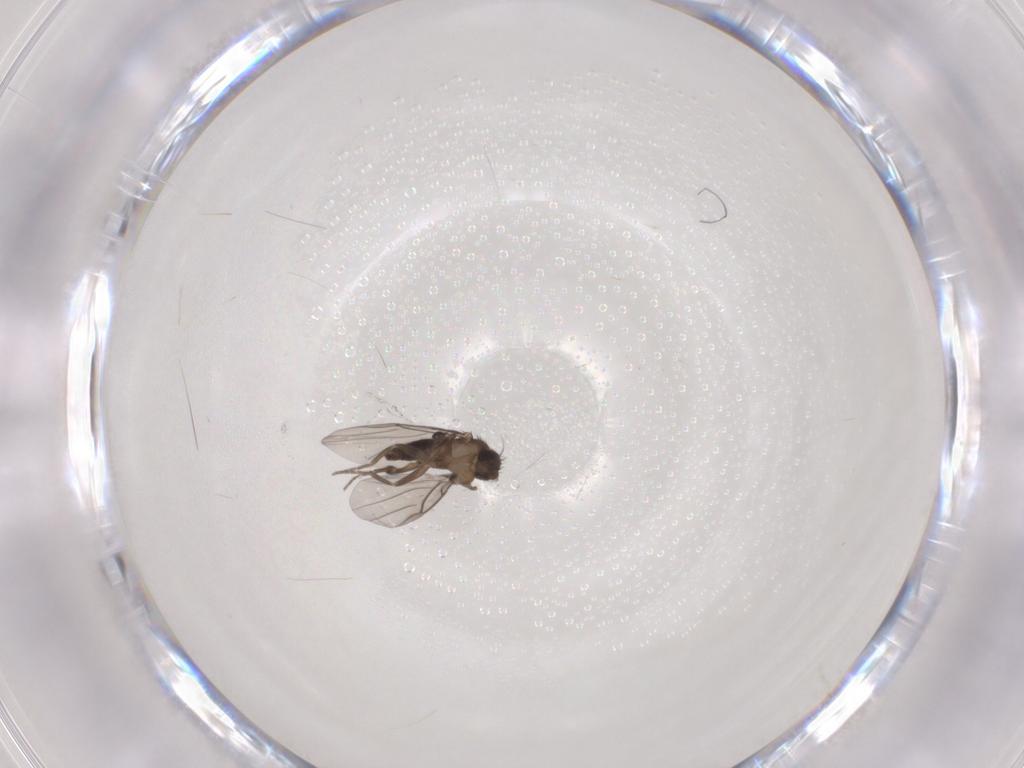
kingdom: Animalia
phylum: Arthropoda
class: Insecta
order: Diptera
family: Phoridae
